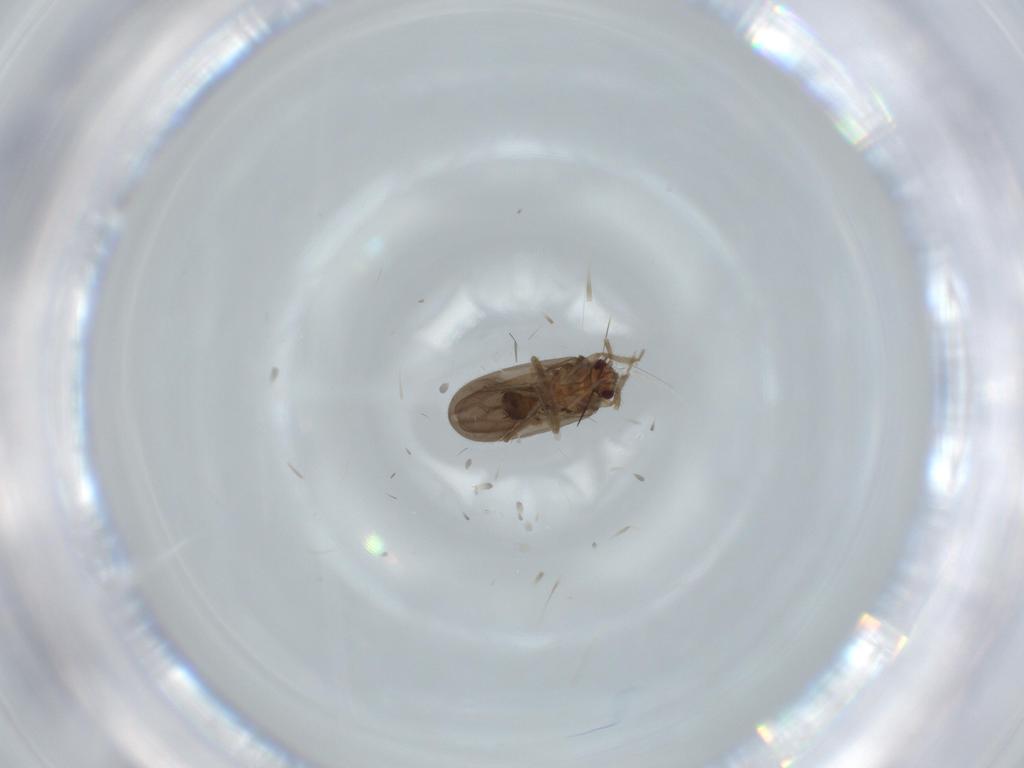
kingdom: Animalia
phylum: Arthropoda
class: Insecta
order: Hemiptera
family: Ceratocombidae
